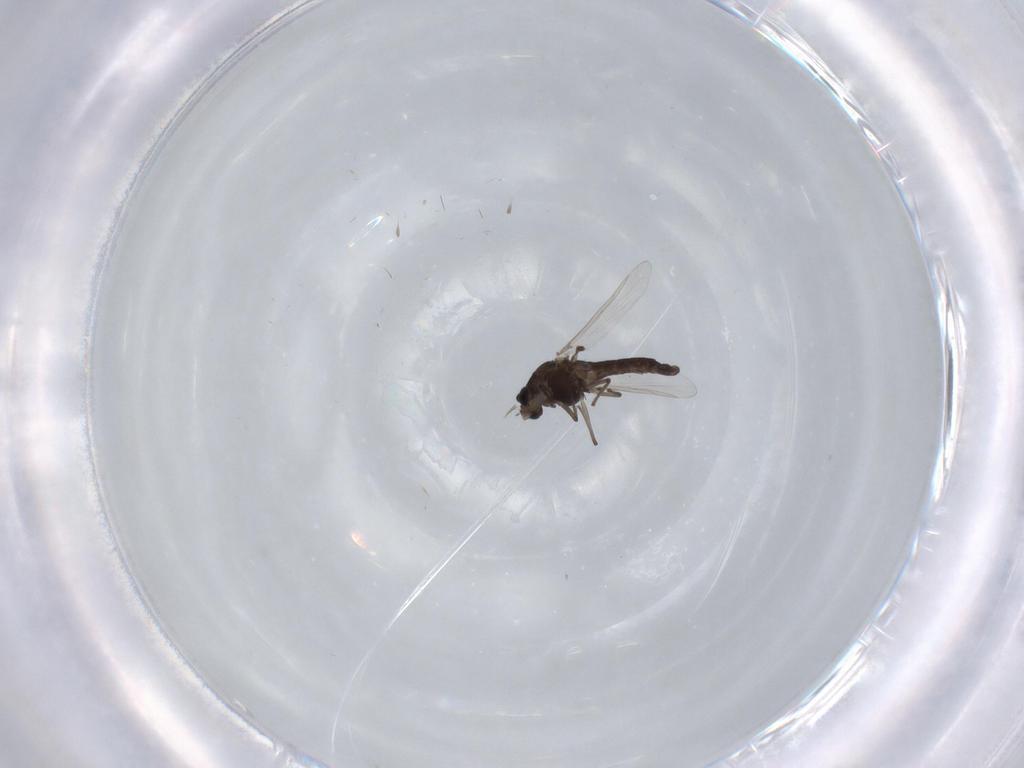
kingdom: Animalia
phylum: Arthropoda
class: Insecta
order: Diptera
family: Chironomidae
